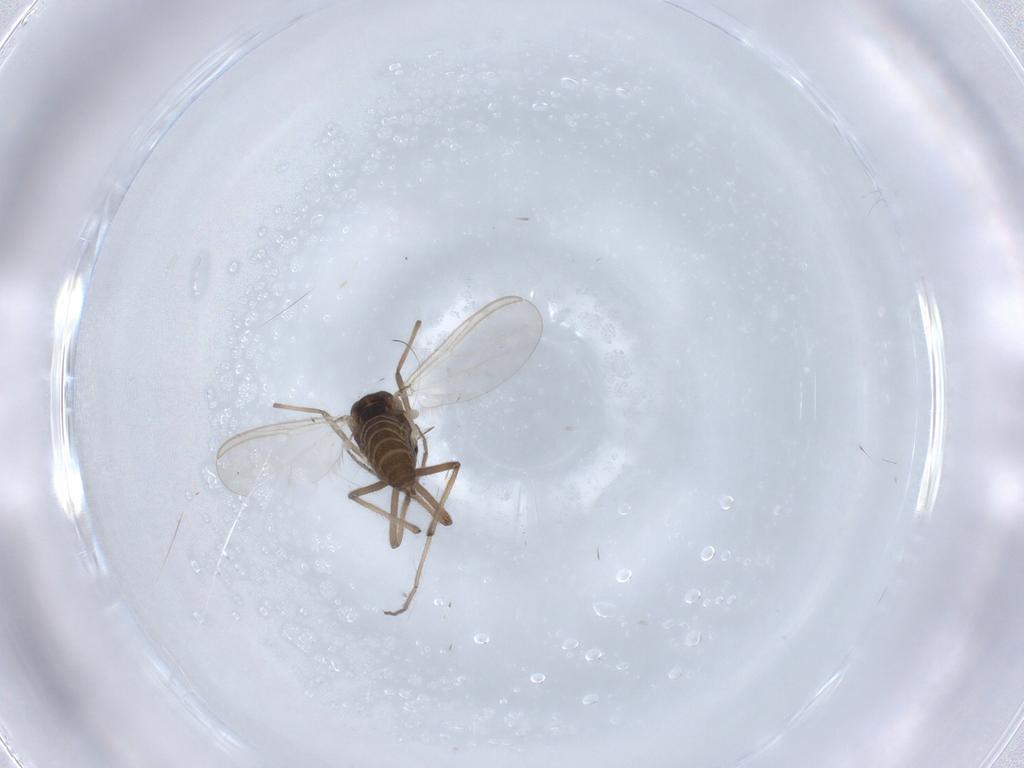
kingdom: Animalia
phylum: Arthropoda
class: Insecta
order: Diptera
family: Chironomidae
